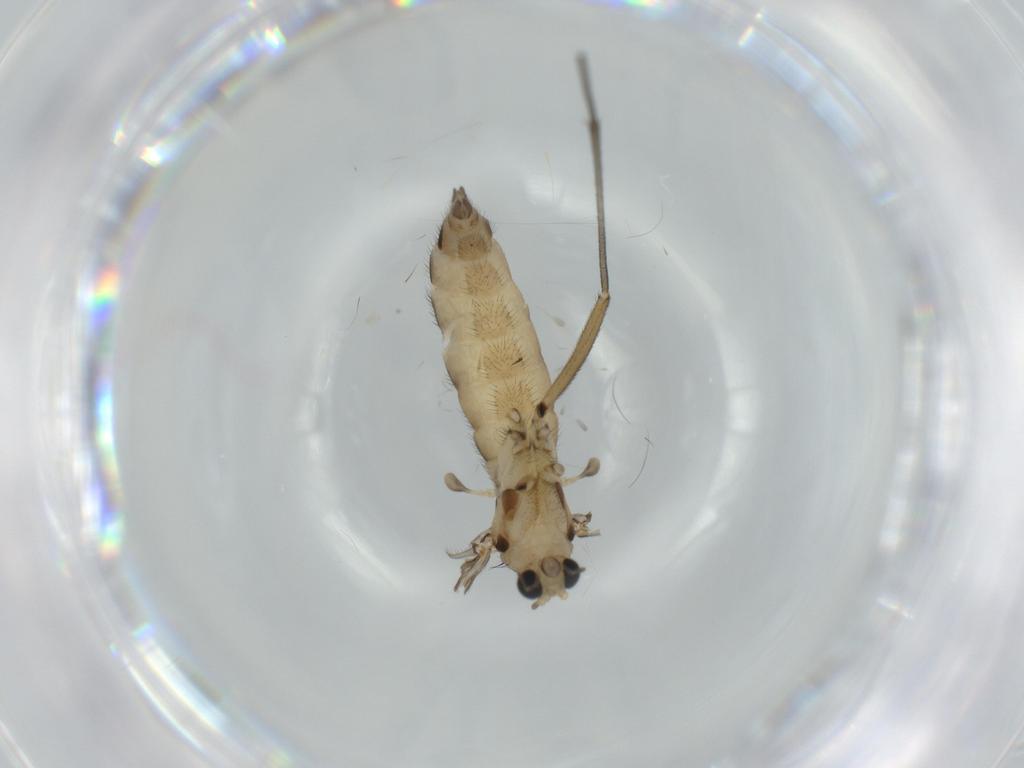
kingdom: Animalia
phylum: Arthropoda
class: Insecta
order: Diptera
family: Sciaridae
